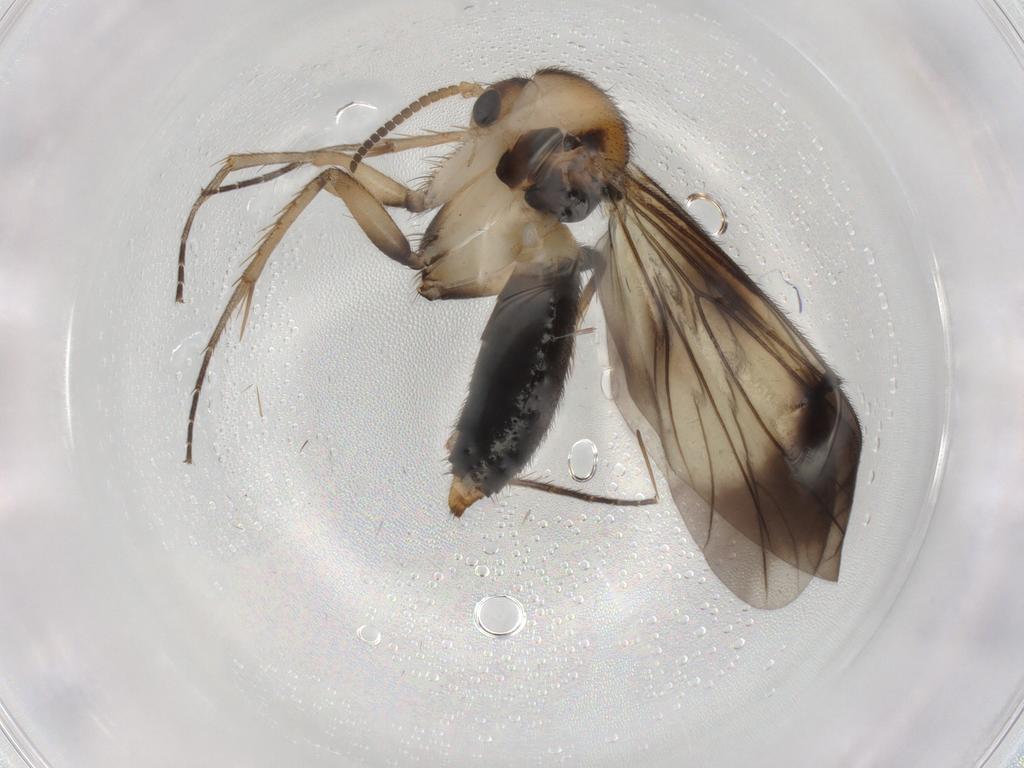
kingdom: Animalia
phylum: Arthropoda
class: Insecta
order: Diptera
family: Mycetophilidae
